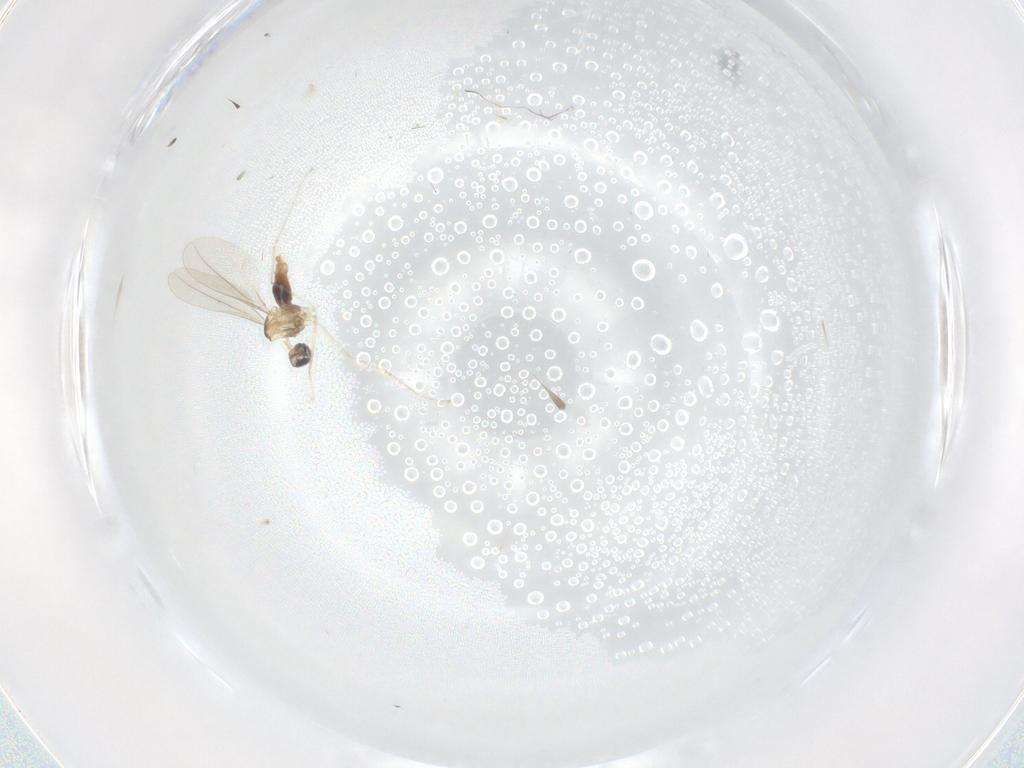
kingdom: Animalia
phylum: Arthropoda
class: Insecta
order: Diptera
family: Cecidomyiidae
